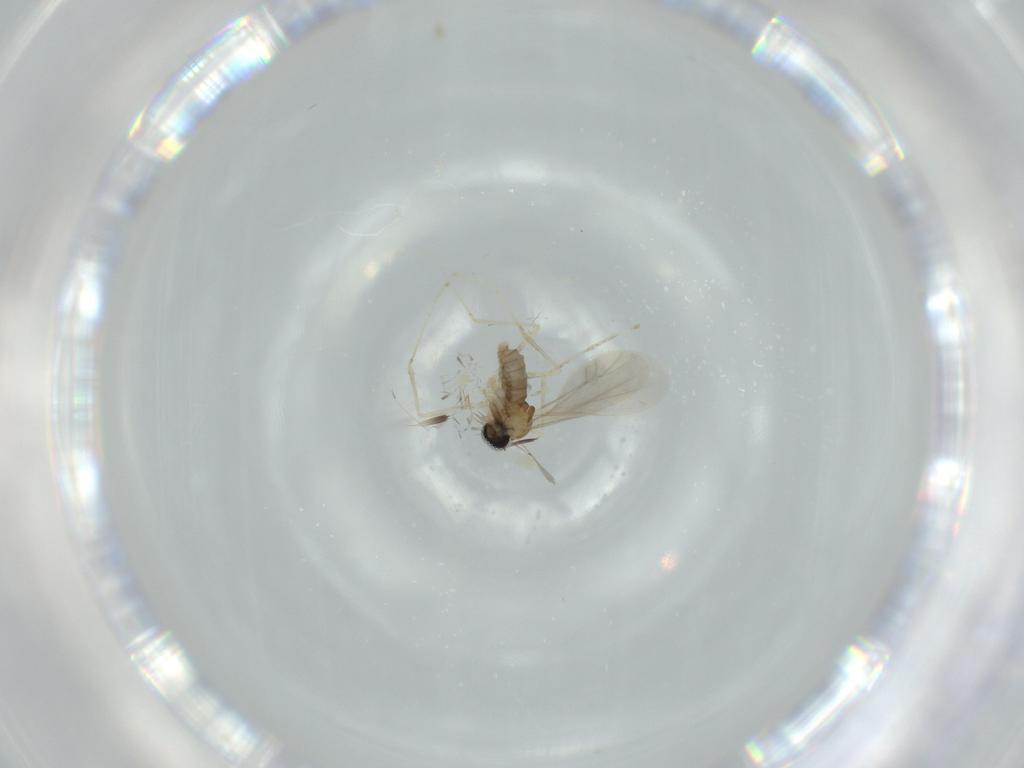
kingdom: Animalia
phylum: Arthropoda
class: Insecta
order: Diptera
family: Cecidomyiidae
